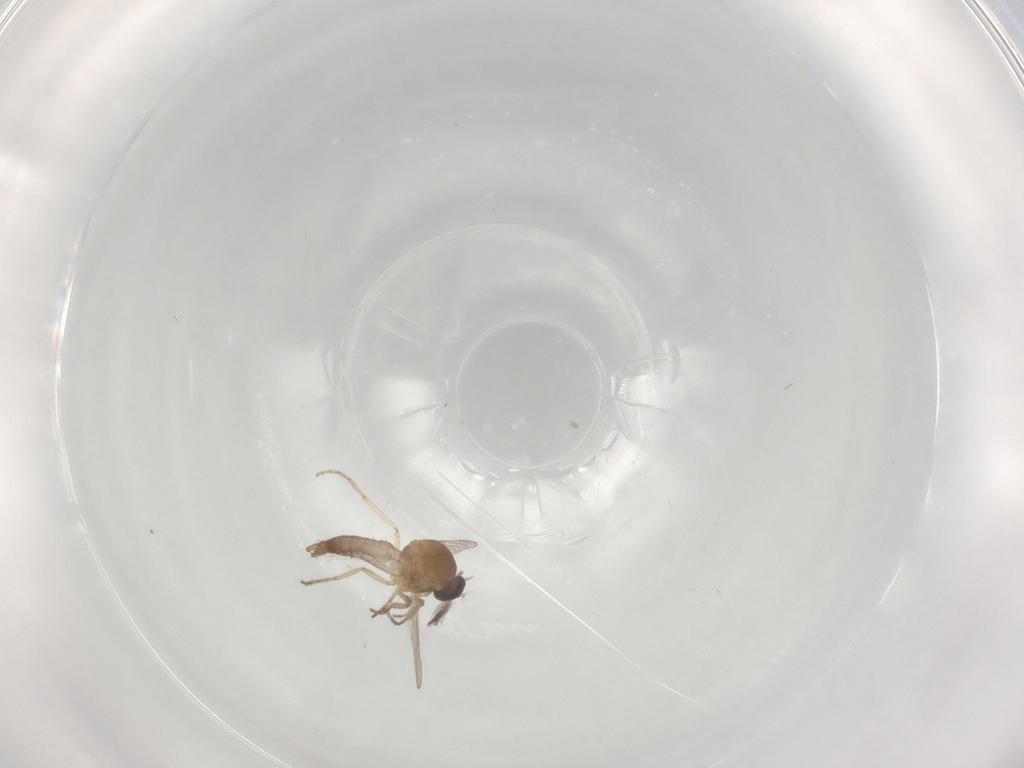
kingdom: Animalia
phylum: Arthropoda
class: Insecta
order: Diptera
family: Ceratopogonidae
